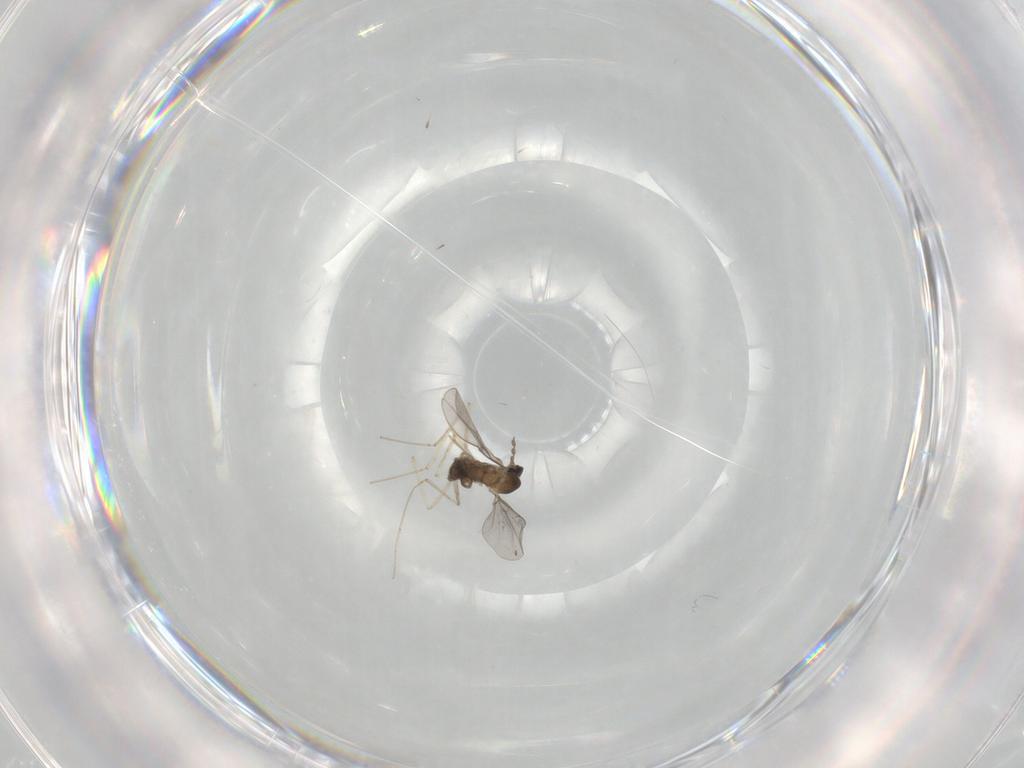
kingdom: Animalia
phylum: Arthropoda
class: Insecta
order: Diptera
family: Cecidomyiidae
